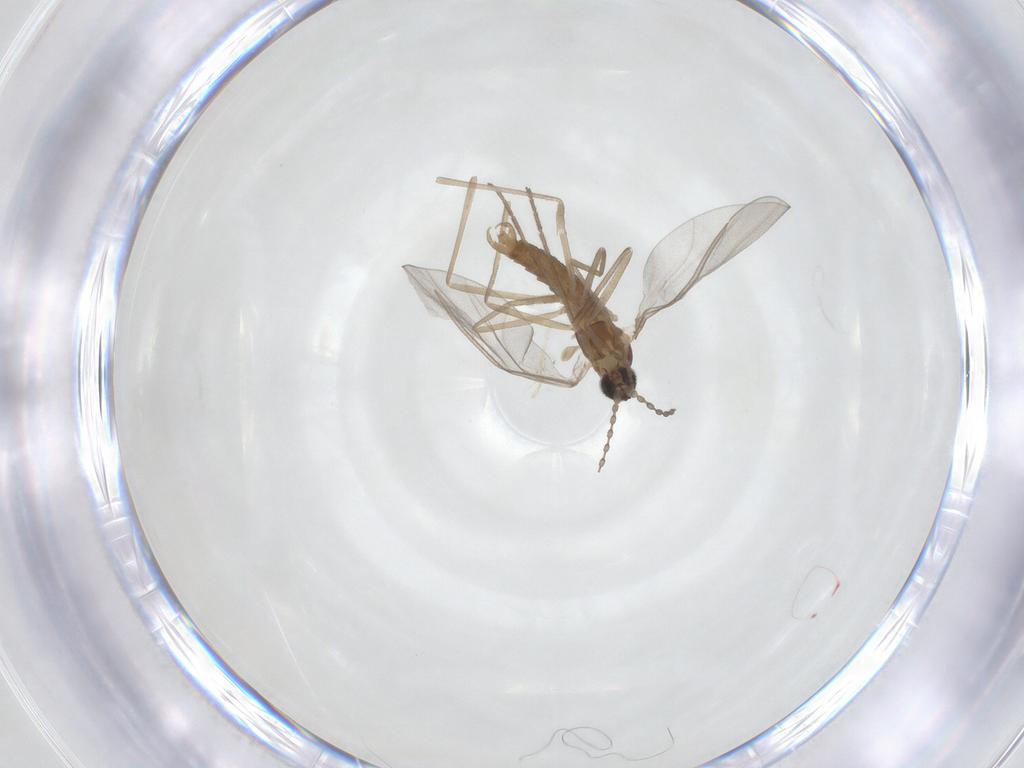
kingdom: Animalia
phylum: Arthropoda
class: Insecta
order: Diptera
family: Cecidomyiidae
